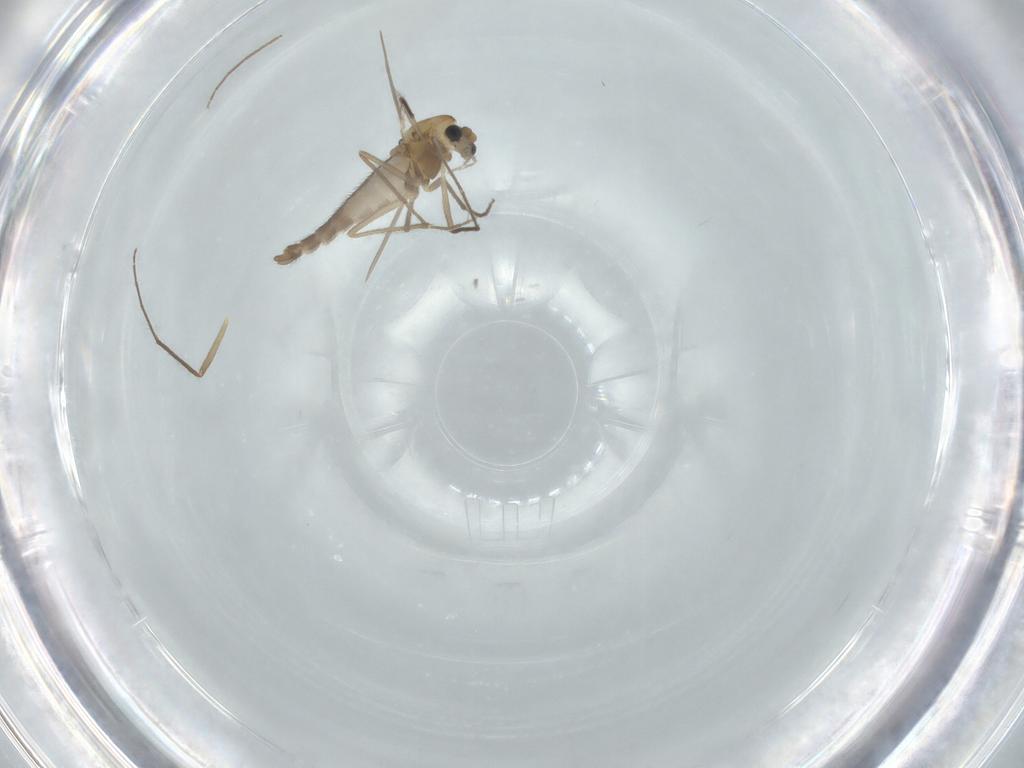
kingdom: Animalia
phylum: Arthropoda
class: Insecta
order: Diptera
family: Chironomidae
